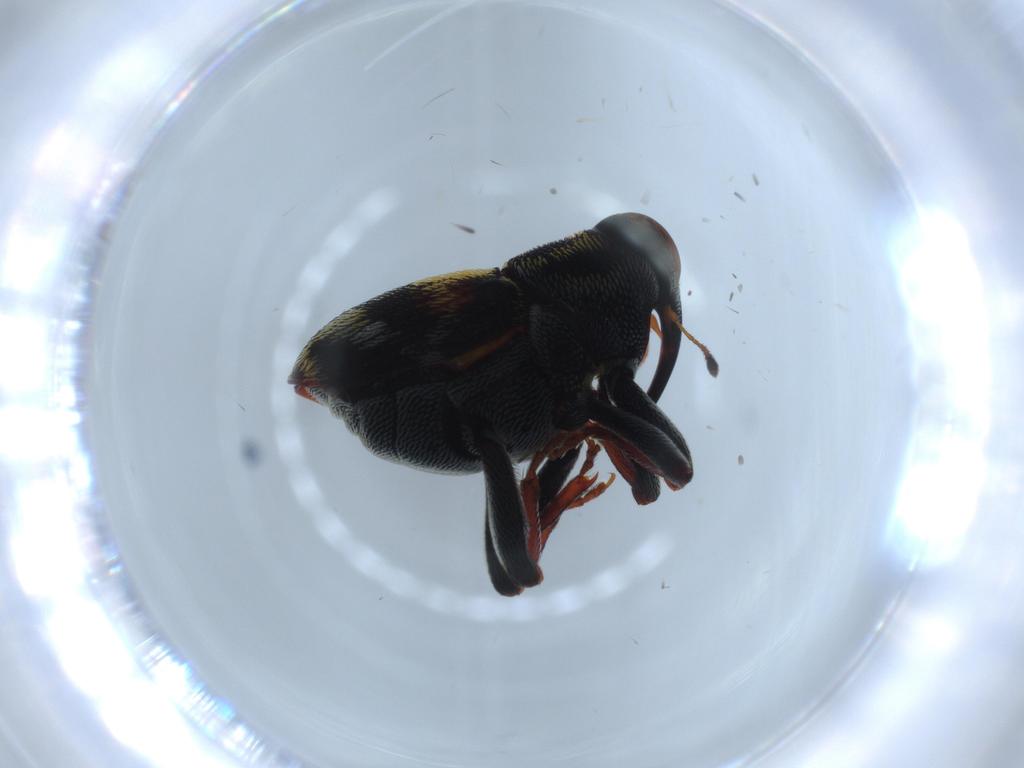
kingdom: Animalia
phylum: Arthropoda
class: Insecta
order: Coleoptera
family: Curculionidae
